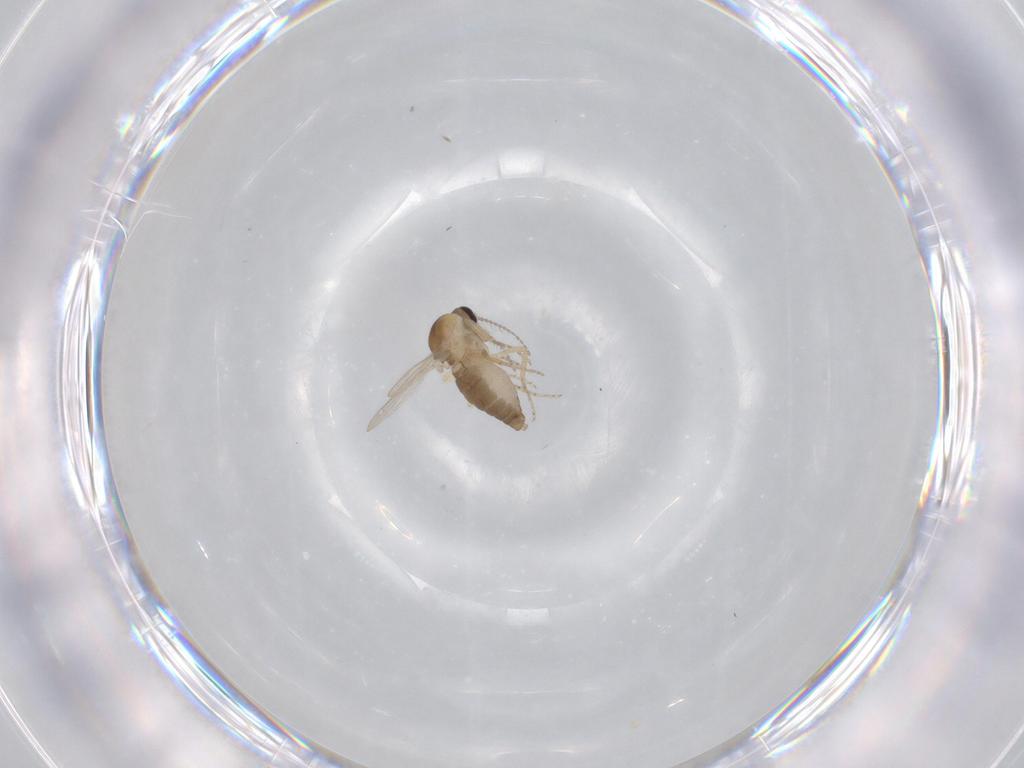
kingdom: Animalia
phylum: Arthropoda
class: Insecta
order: Diptera
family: Ceratopogonidae
